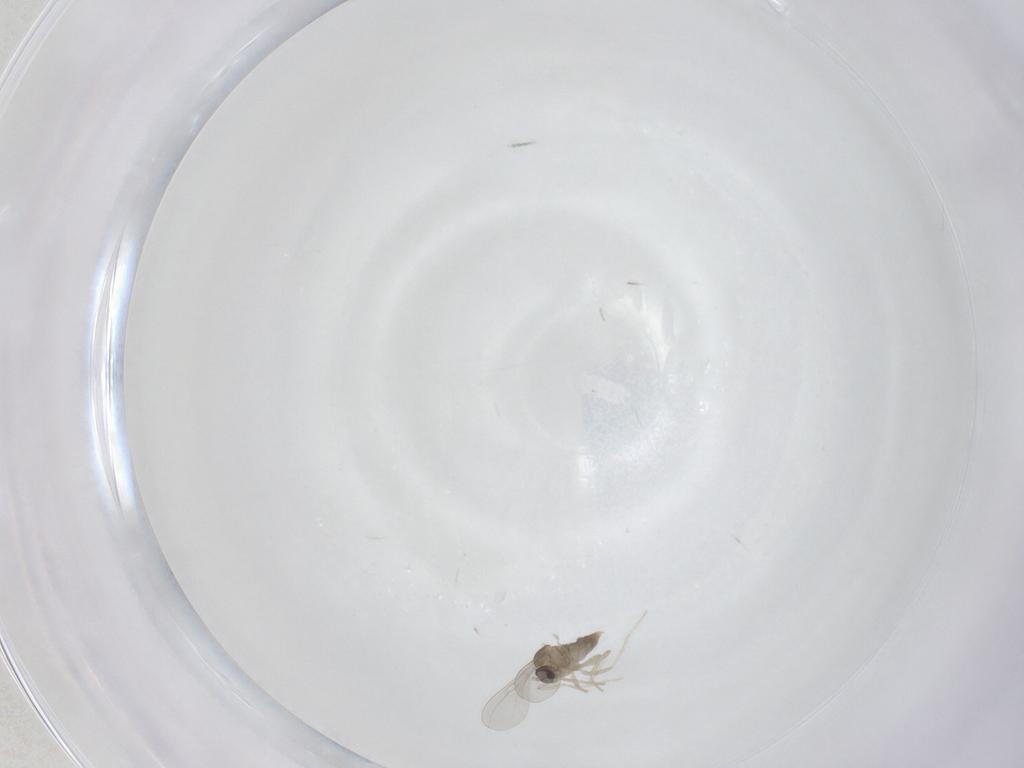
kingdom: Animalia
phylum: Arthropoda
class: Insecta
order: Diptera
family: Cecidomyiidae
